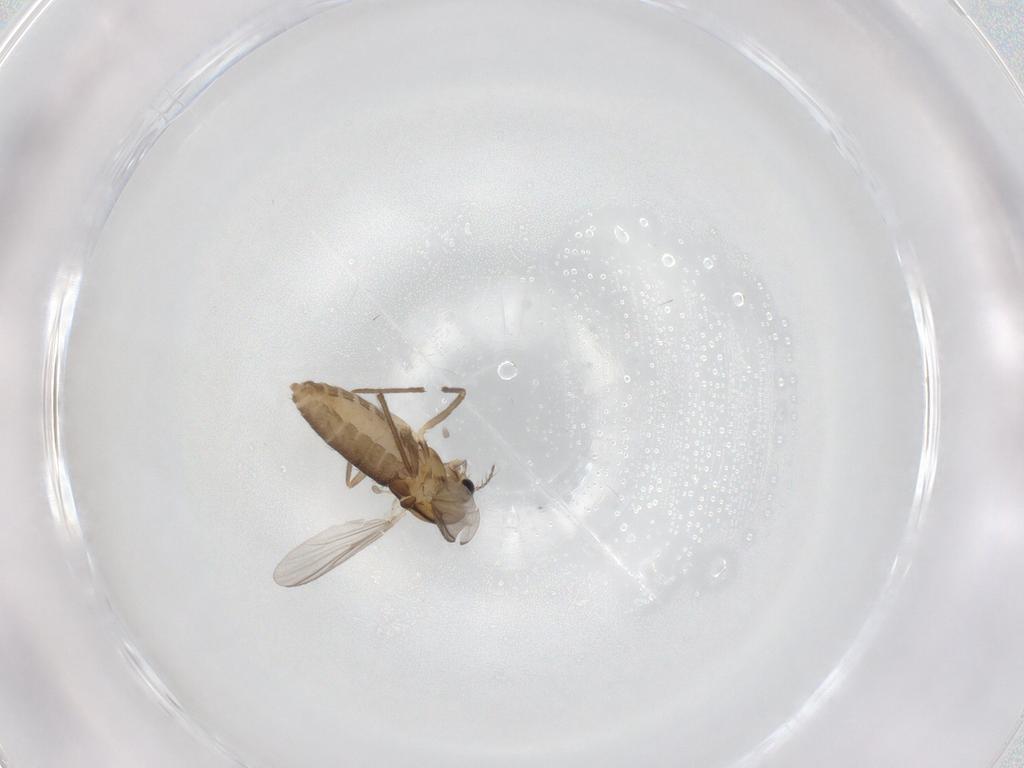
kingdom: Animalia
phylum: Arthropoda
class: Insecta
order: Diptera
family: Chironomidae
